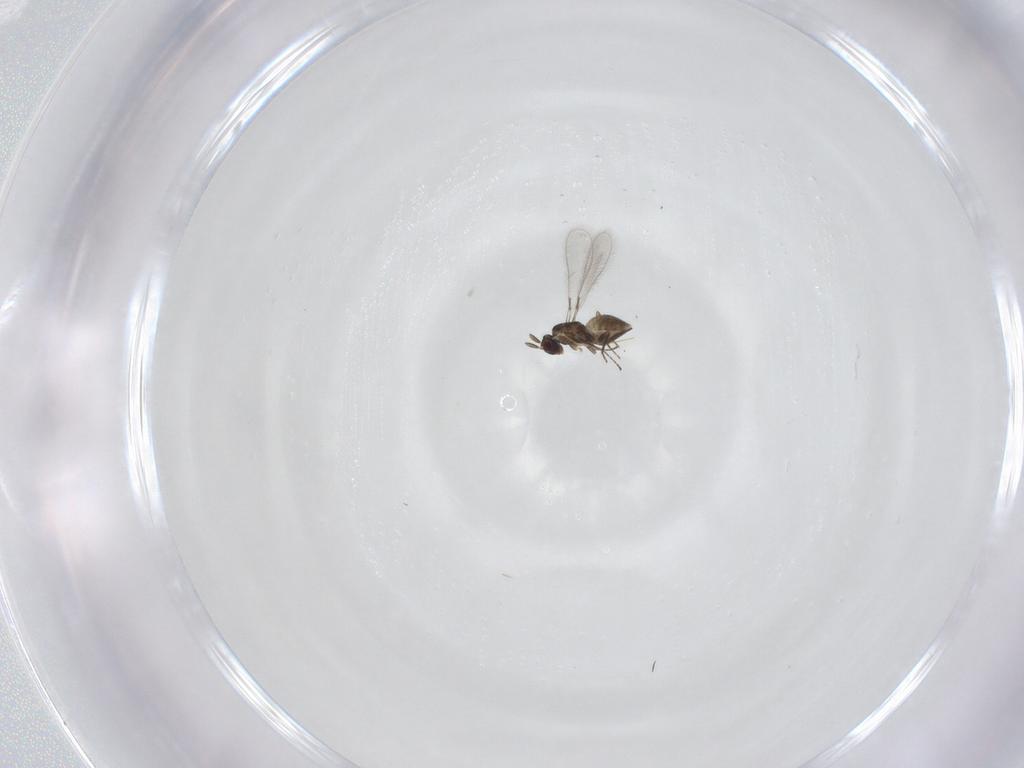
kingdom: Animalia
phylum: Arthropoda
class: Insecta
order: Hymenoptera
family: Mymaridae
